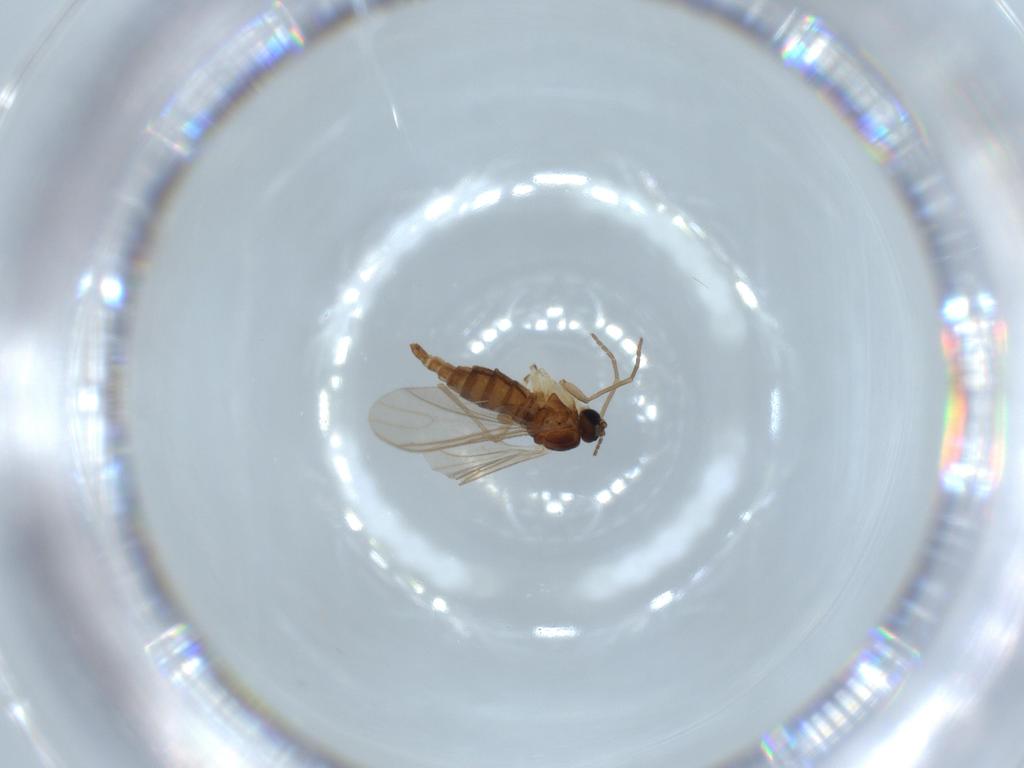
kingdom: Animalia
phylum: Arthropoda
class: Insecta
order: Diptera
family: Sciaridae
